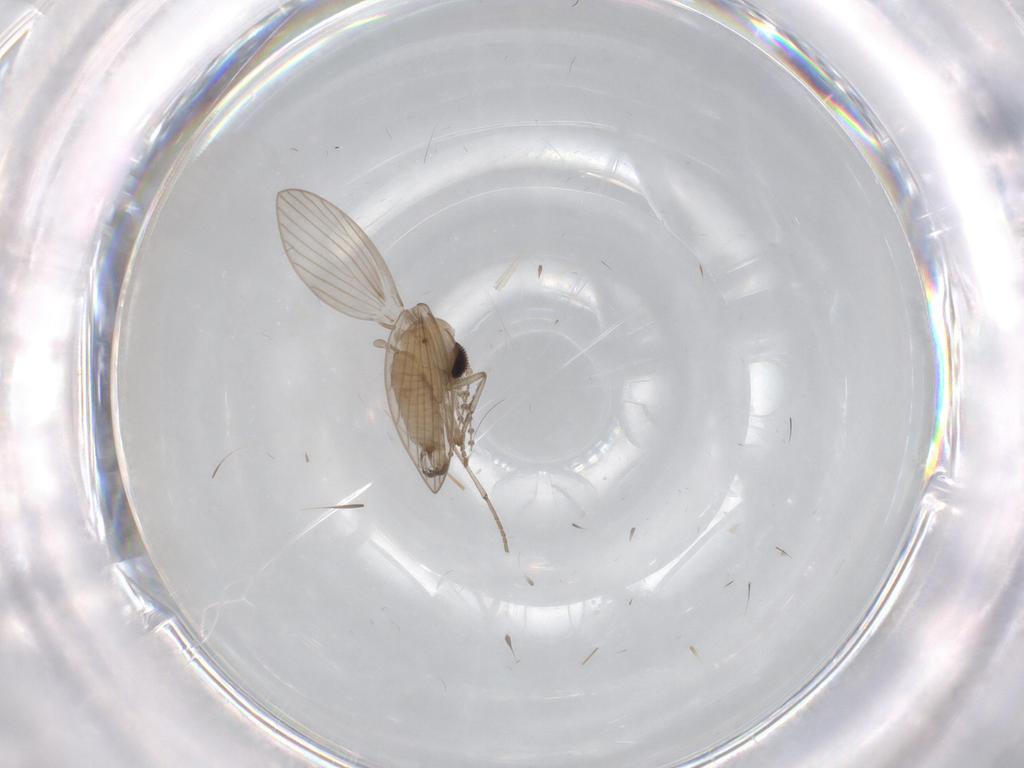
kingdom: Animalia
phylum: Arthropoda
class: Insecta
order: Diptera
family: Psychodidae
